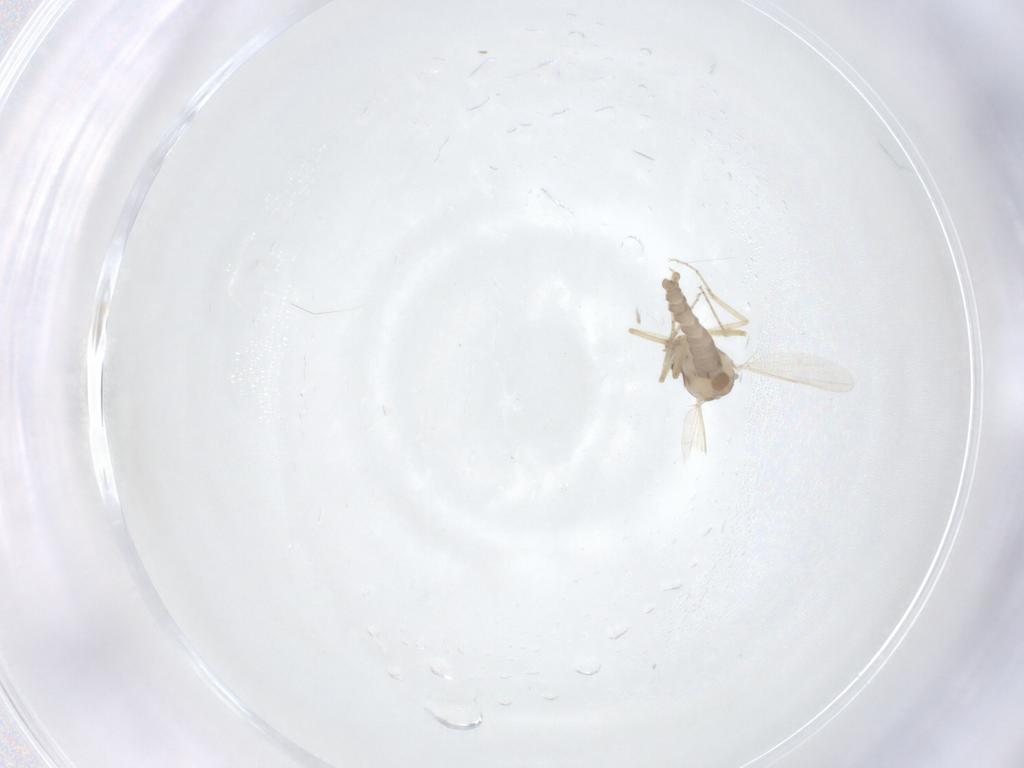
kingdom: Animalia
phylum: Arthropoda
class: Insecta
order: Diptera
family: Ceratopogonidae
